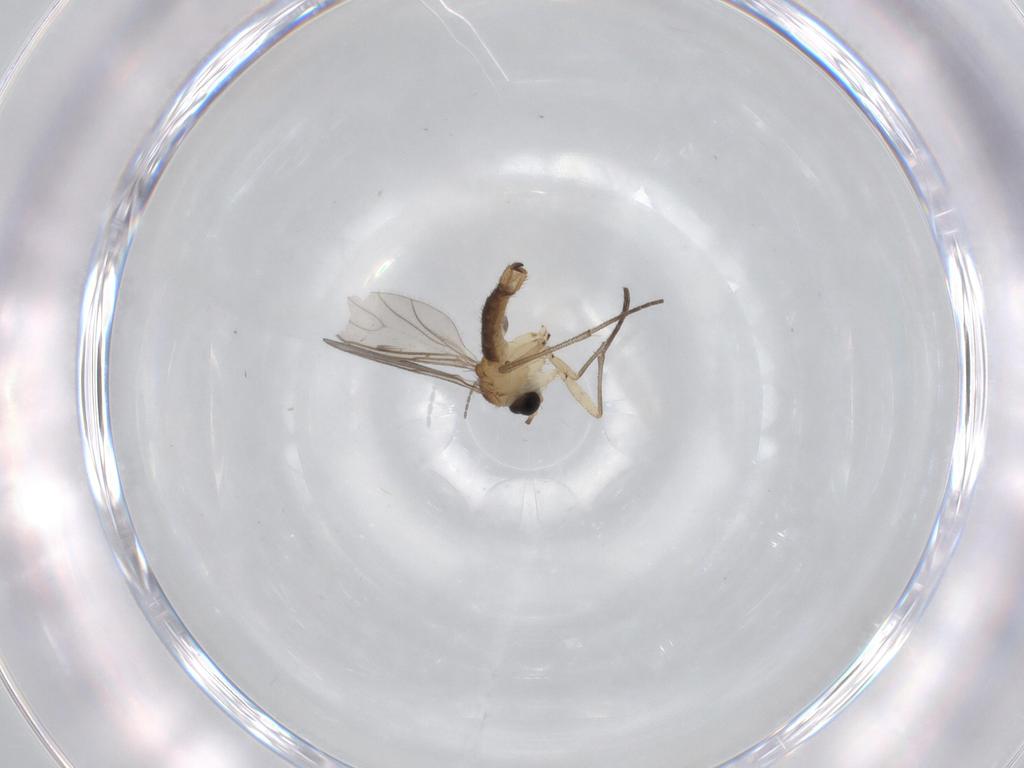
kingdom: Animalia
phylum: Arthropoda
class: Insecta
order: Diptera
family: Sciaridae
